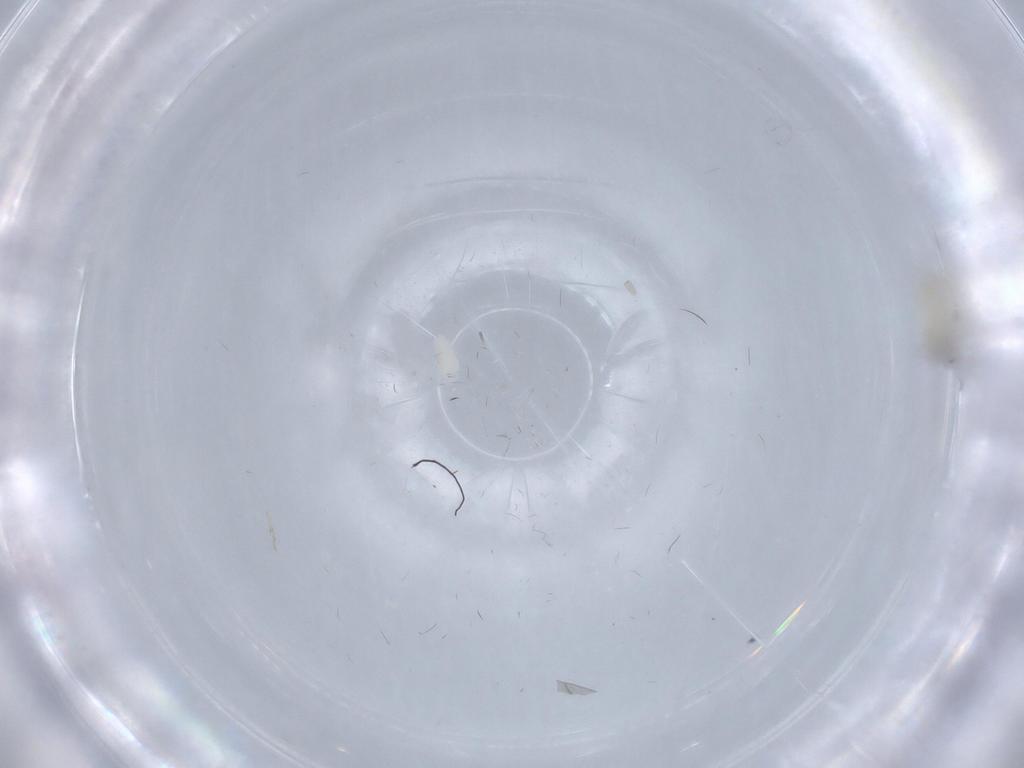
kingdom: Animalia
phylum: Arthropoda
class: Insecta
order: Diptera
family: Cecidomyiidae
